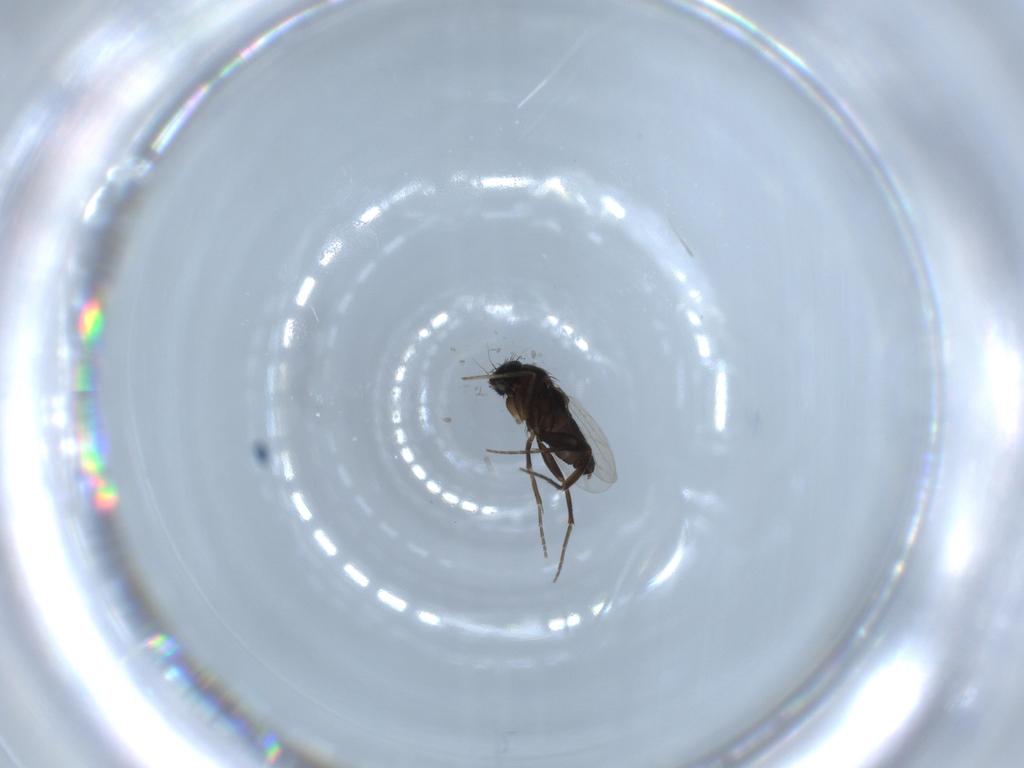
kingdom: Animalia
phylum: Arthropoda
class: Insecta
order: Diptera
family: Phoridae
